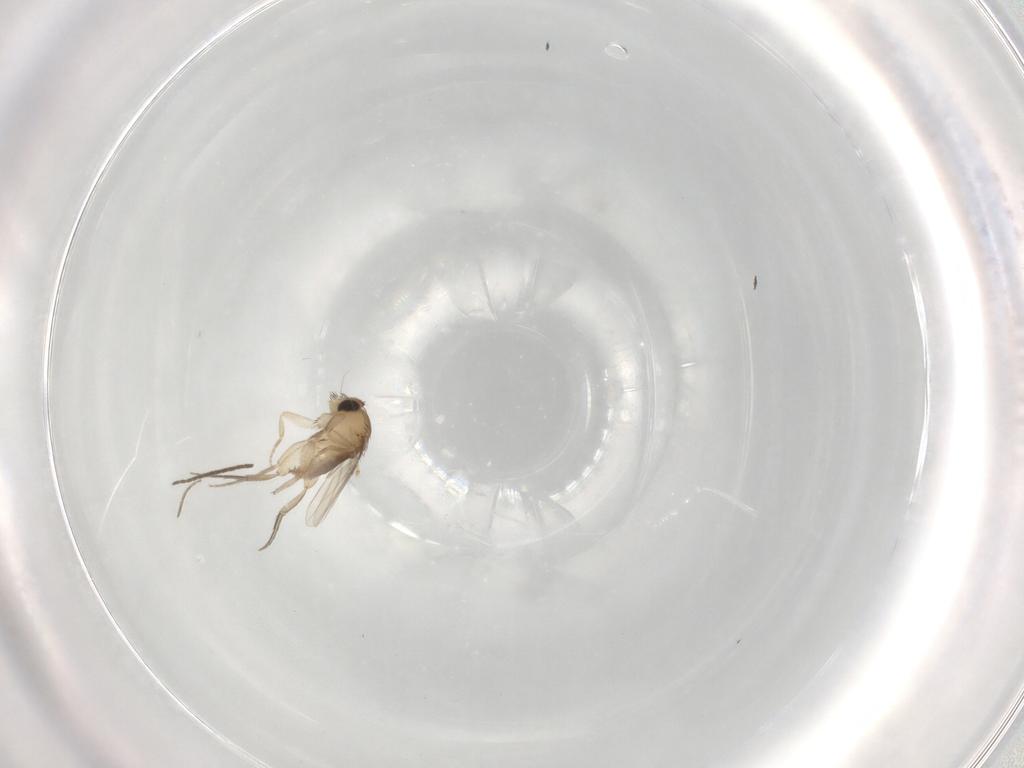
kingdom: Animalia
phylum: Arthropoda
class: Insecta
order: Diptera
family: Phoridae
